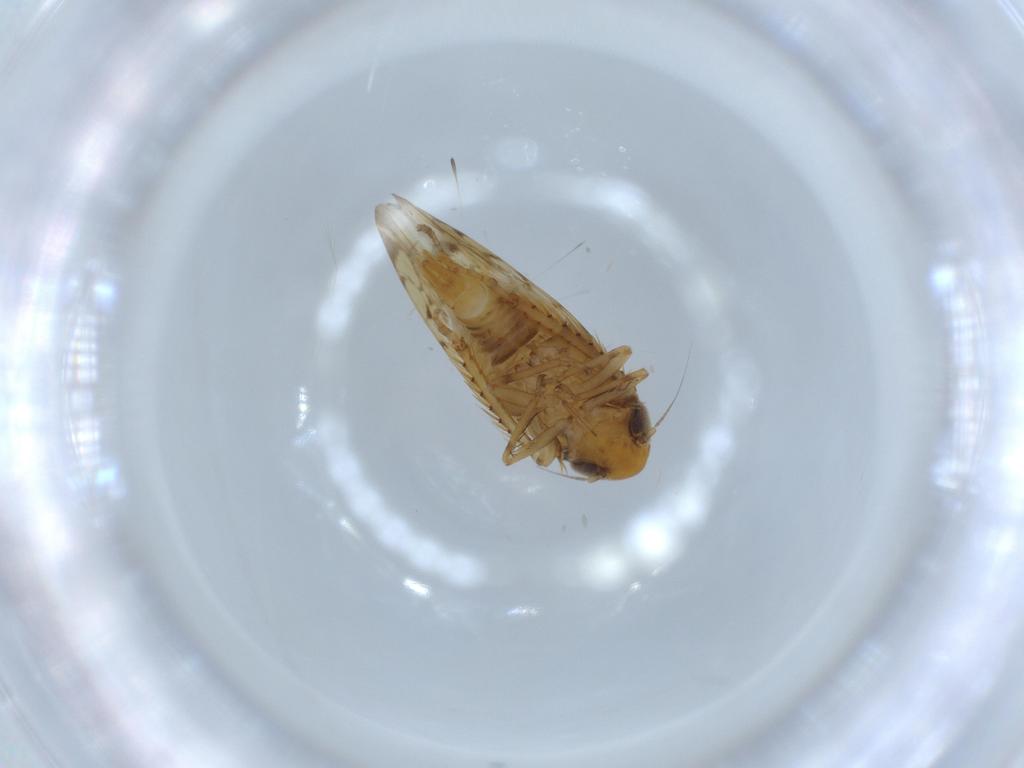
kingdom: Animalia
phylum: Arthropoda
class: Insecta
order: Hemiptera
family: Cicadellidae
